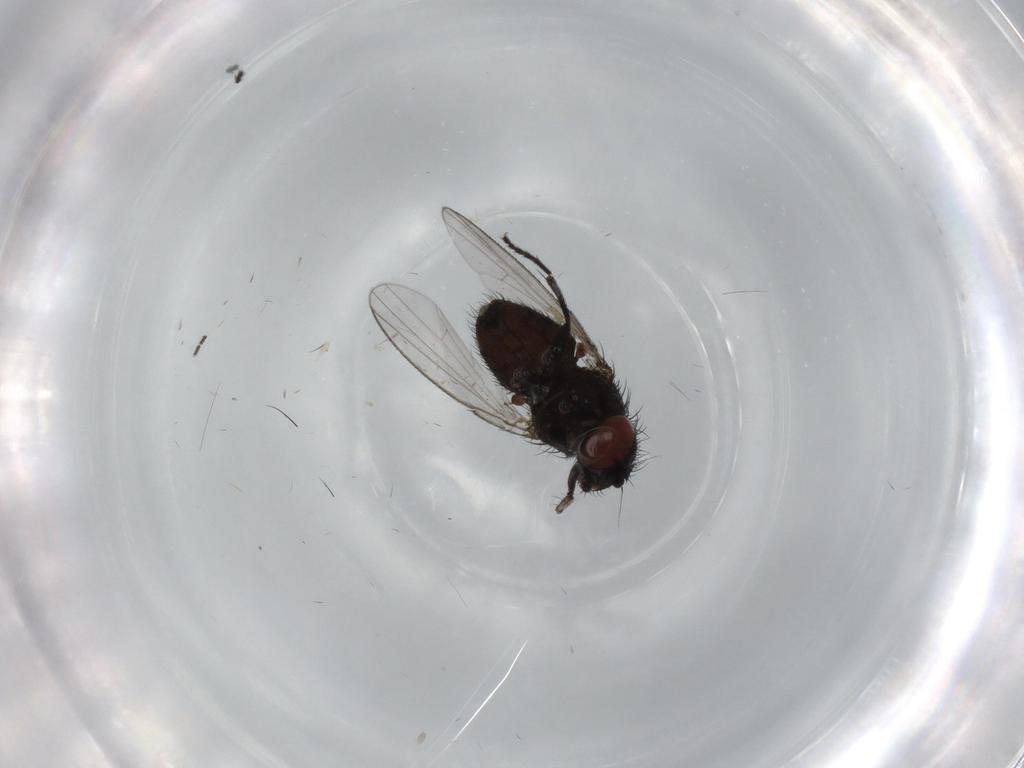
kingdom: Animalia
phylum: Arthropoda
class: Insecta
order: Diptera
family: Milichiidae
